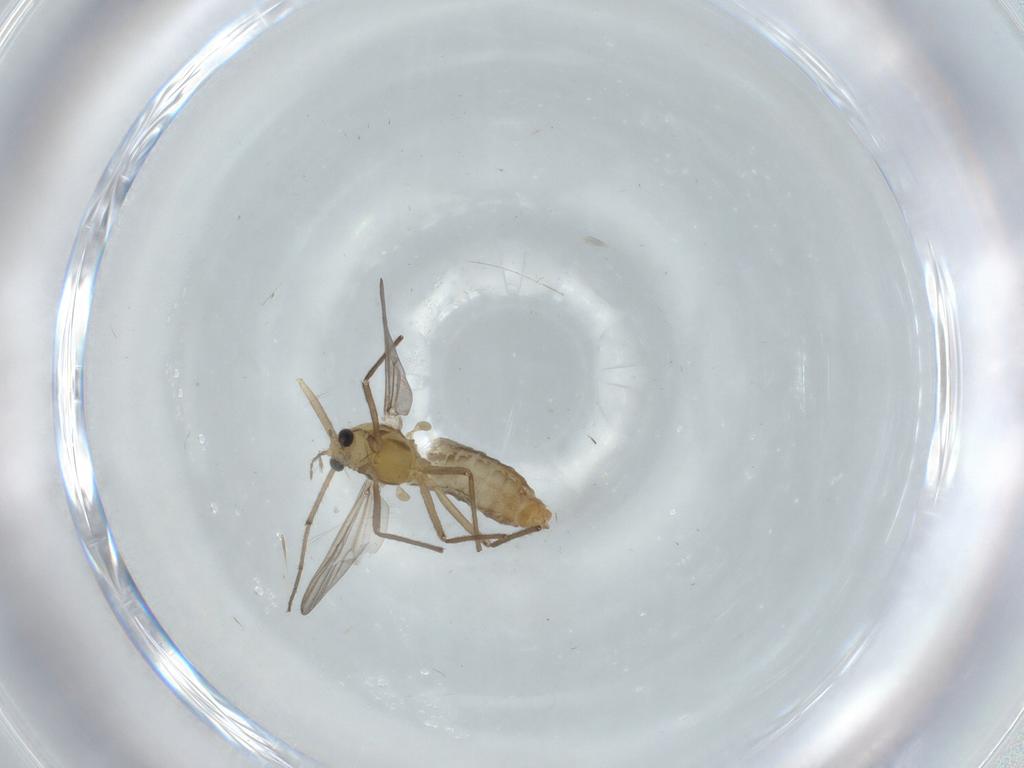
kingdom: Animalia
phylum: Arthropoda
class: Insecta
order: Diptera
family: Chironomidae
